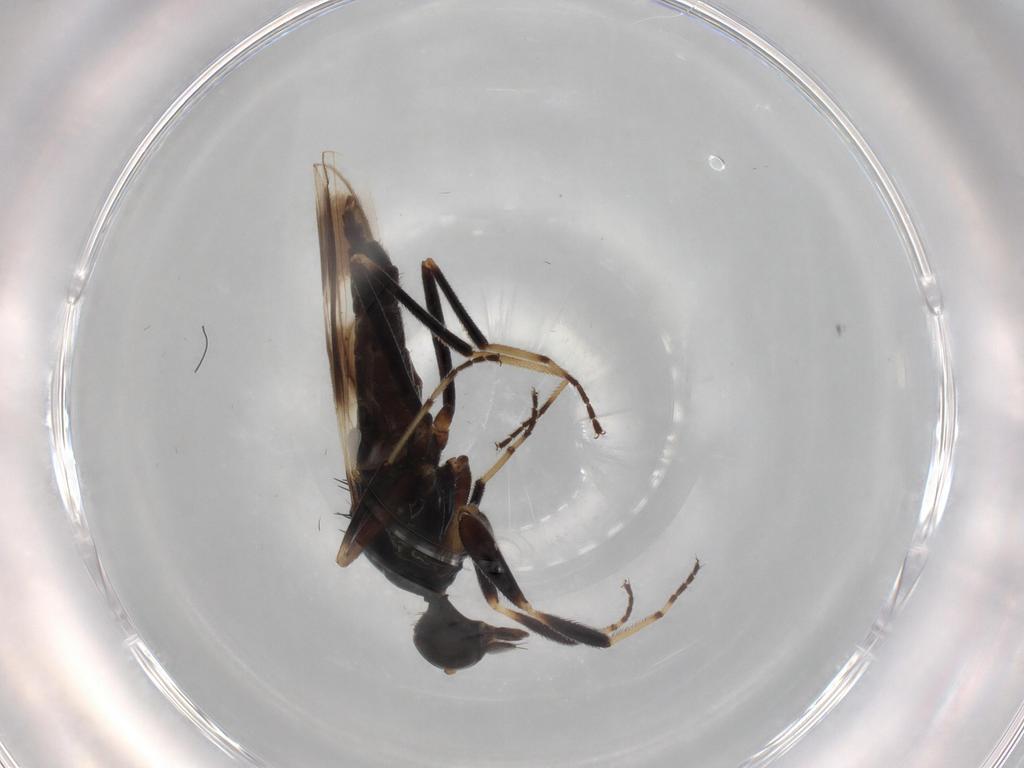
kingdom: Animalia
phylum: Arthropoda
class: Insecta
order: Diptera
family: Hybotidae
